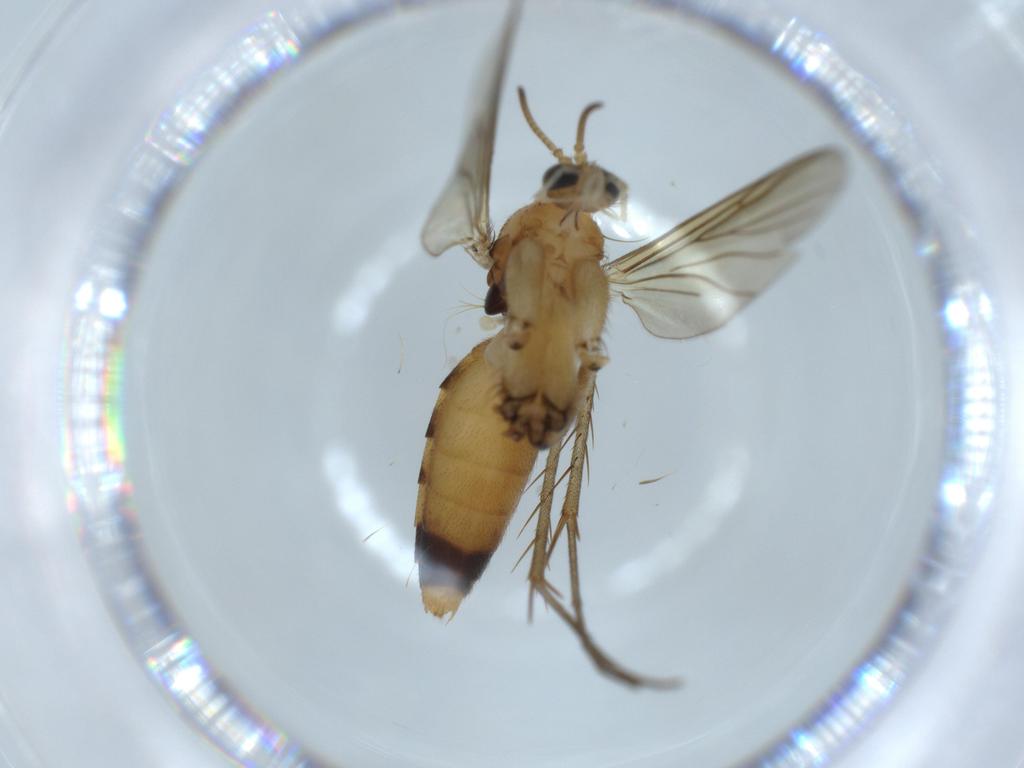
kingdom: Animalia
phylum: Arthropoda
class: Insecta
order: Diptera
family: Mycetophilidae
